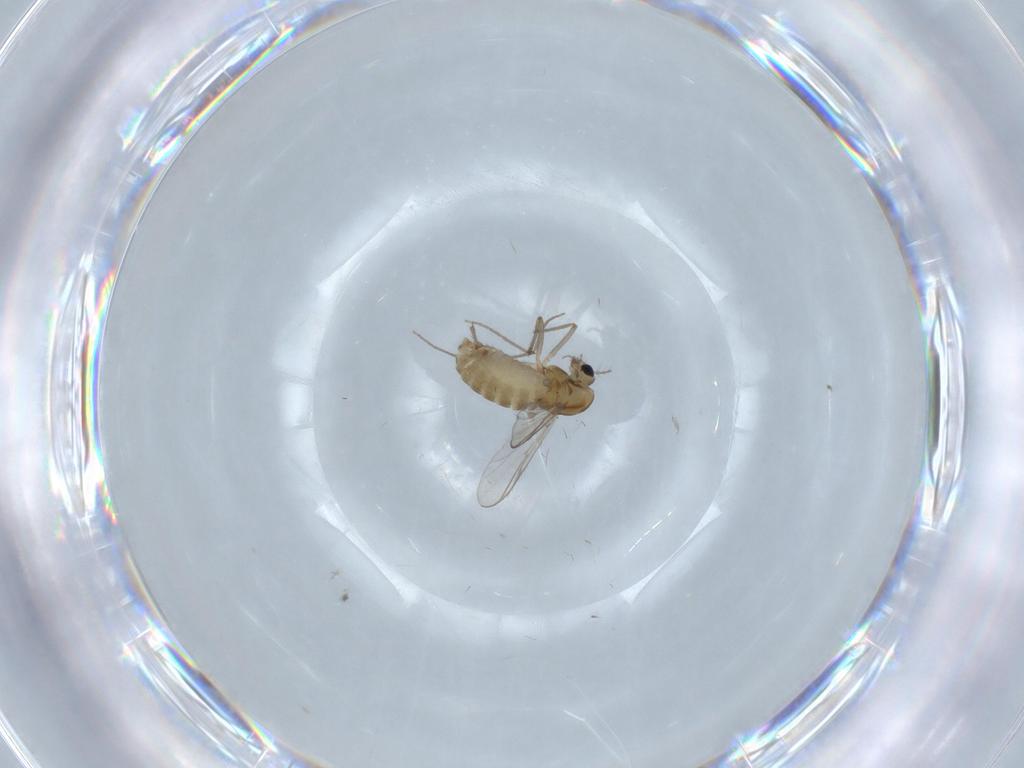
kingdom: Animalia
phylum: Arthropoda
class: Insecta
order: Diptera
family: Chironomidae
